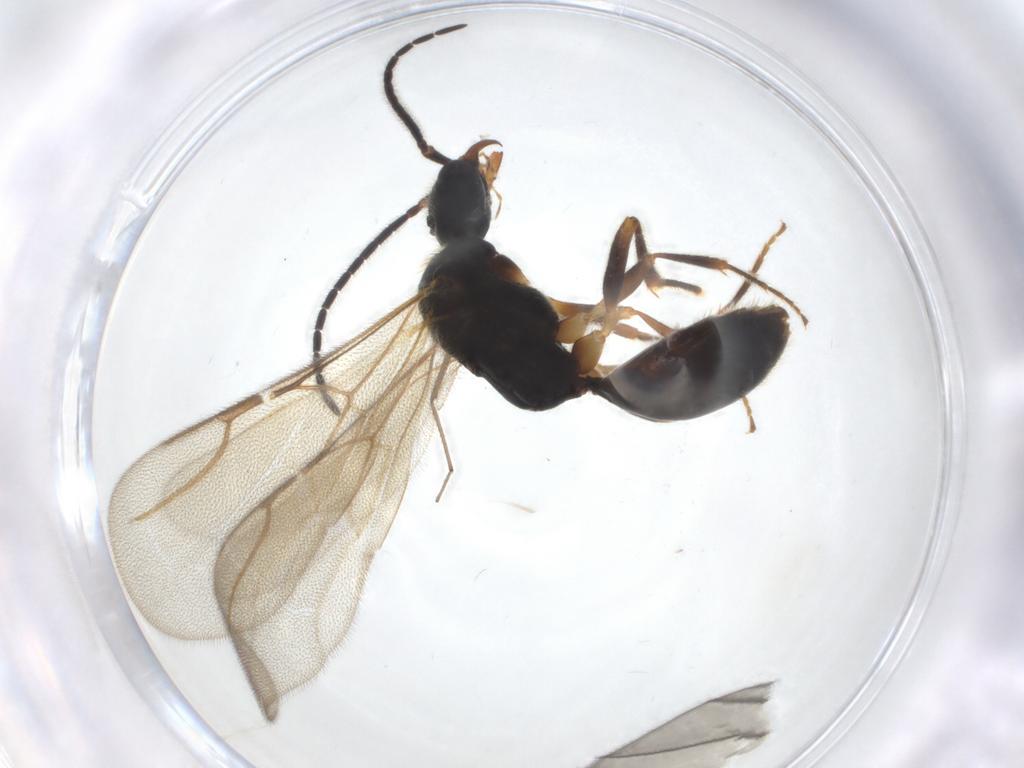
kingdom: Animalia
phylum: Arthropoda
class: Insecta
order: Hymenoptera
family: Bethylidae
